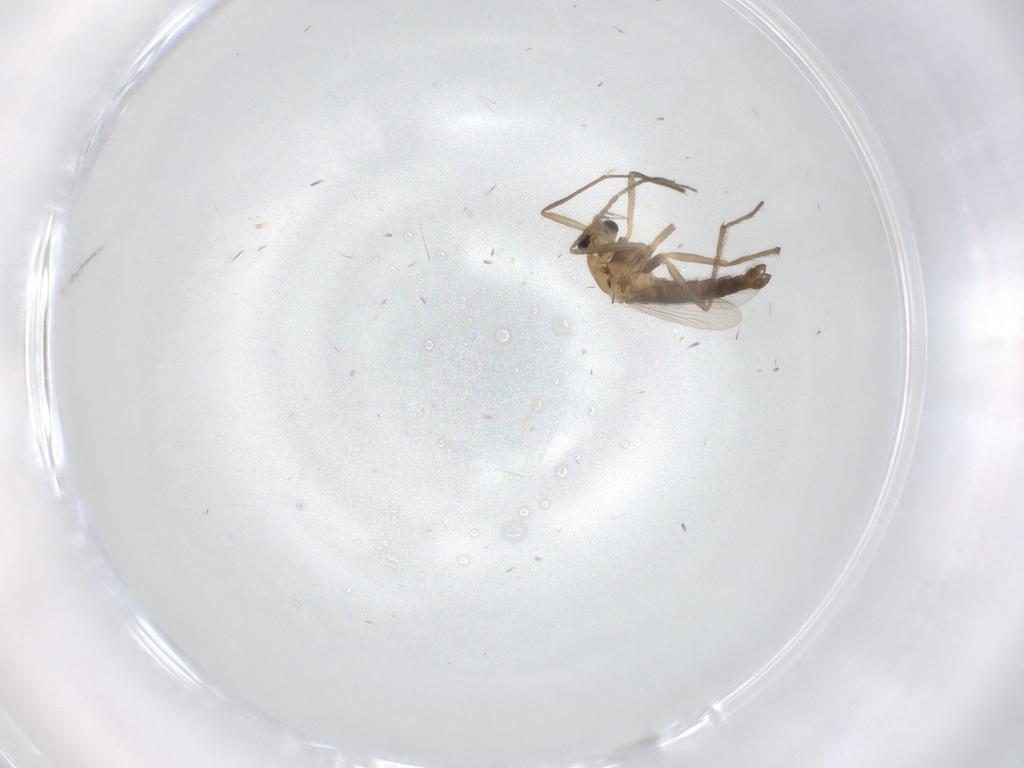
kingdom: Animalia
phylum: Arthropoda
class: Insecta
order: Diptera
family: Chironomidae
